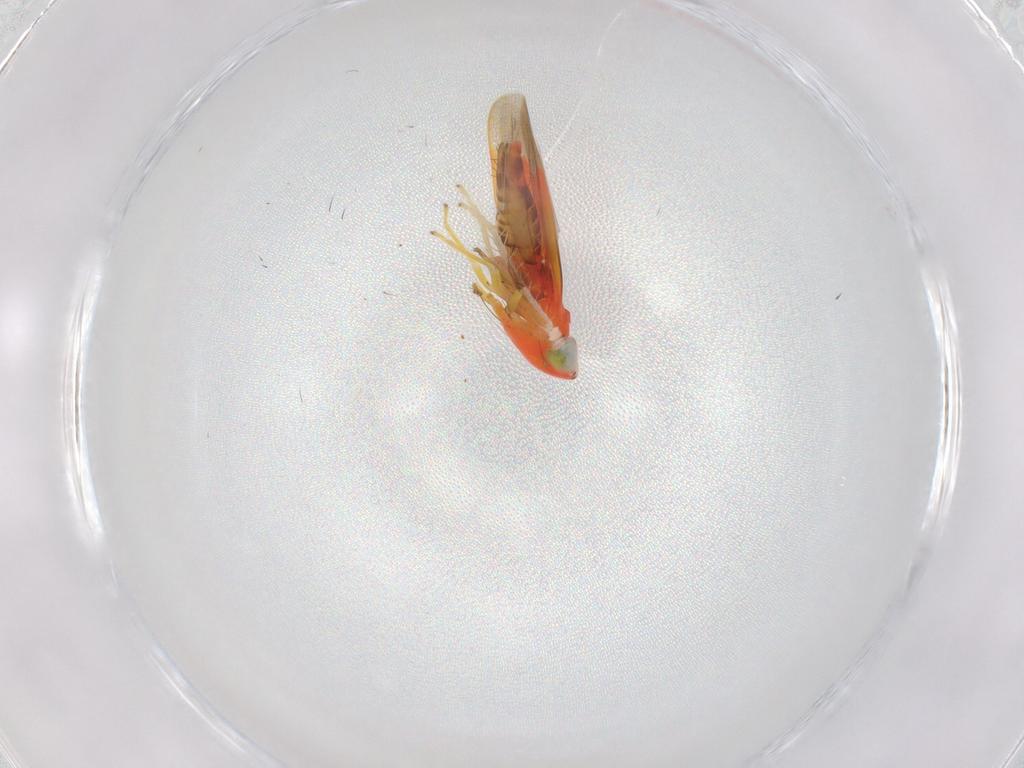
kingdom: Animalia
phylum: Arthropoda
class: Insecta
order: Hemiptera
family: Cicadellidae
